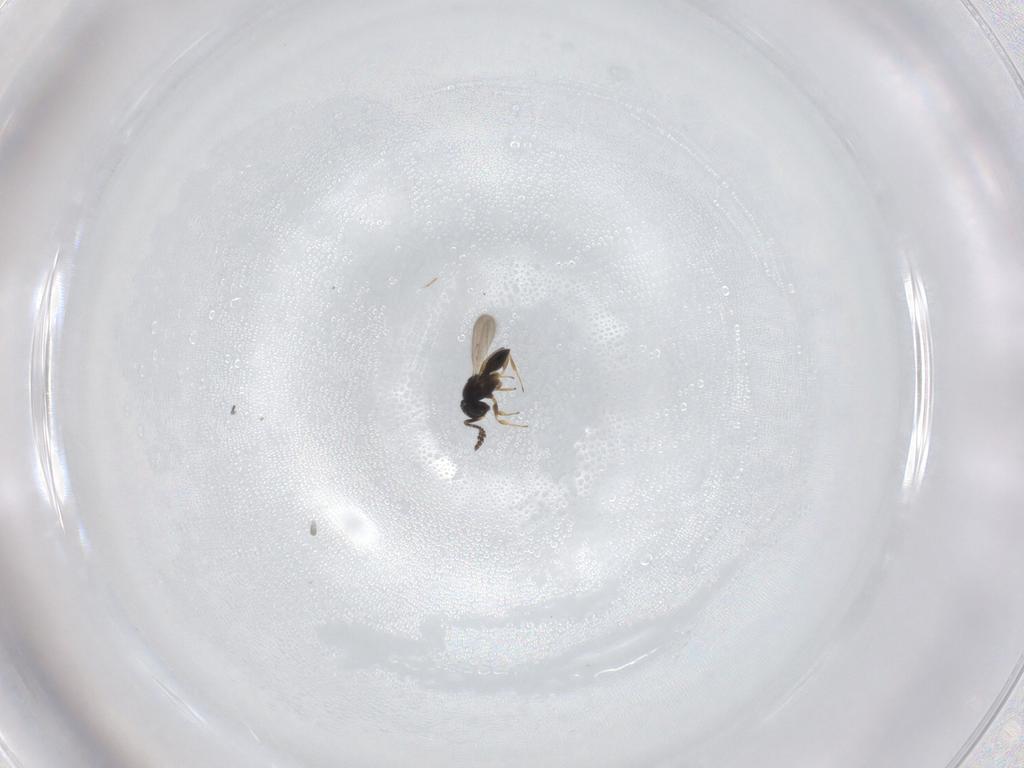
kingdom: Animalia
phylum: Arthropoda
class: Insecta
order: Hymenoptera
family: Scelionidae
